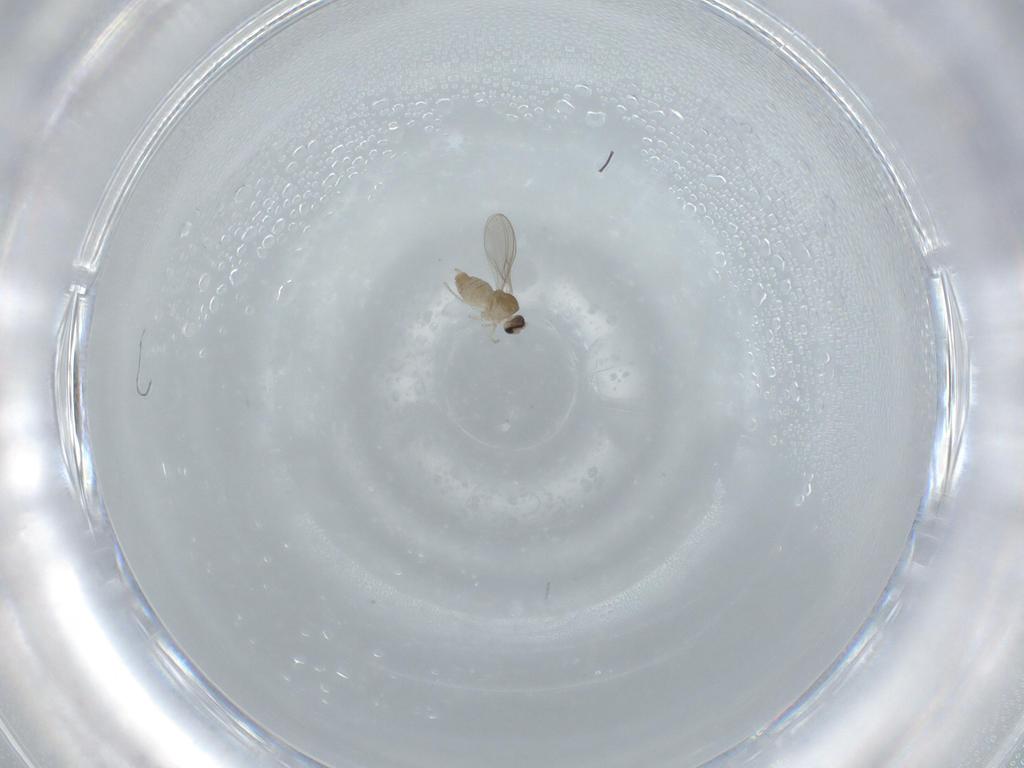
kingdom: Animalia
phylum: Arthropoda
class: Insecta
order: Diptera
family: Cecidomyiidae
